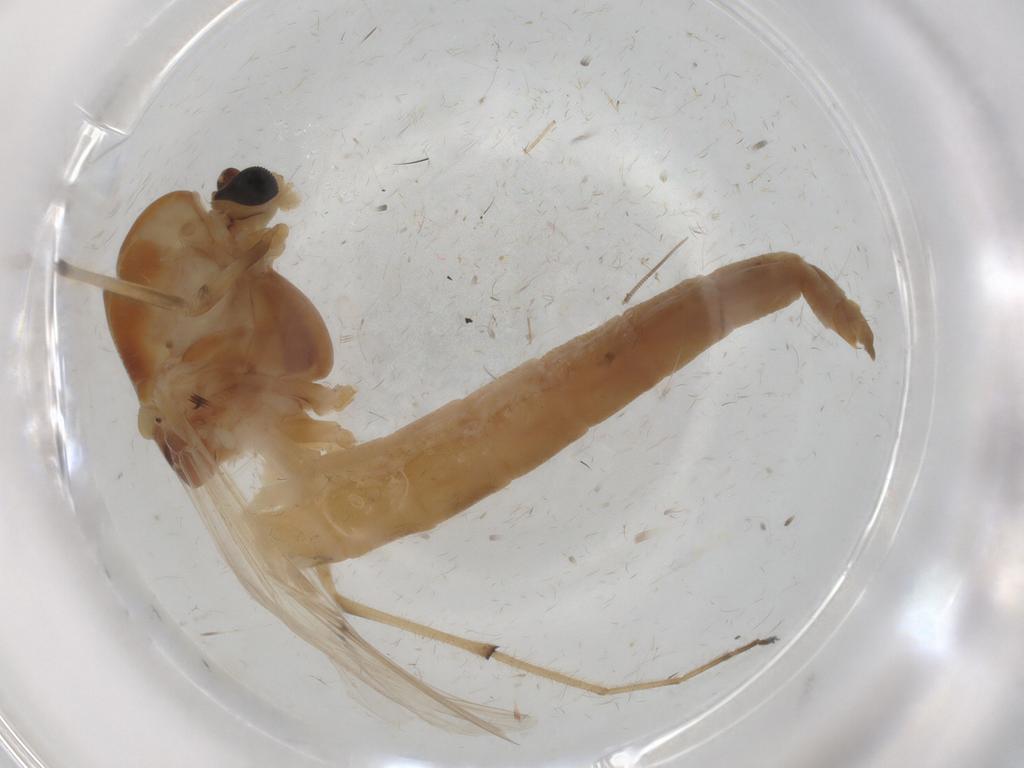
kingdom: Animalia
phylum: Arthropoda
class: Insecta
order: Diptera
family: Chironomidae
